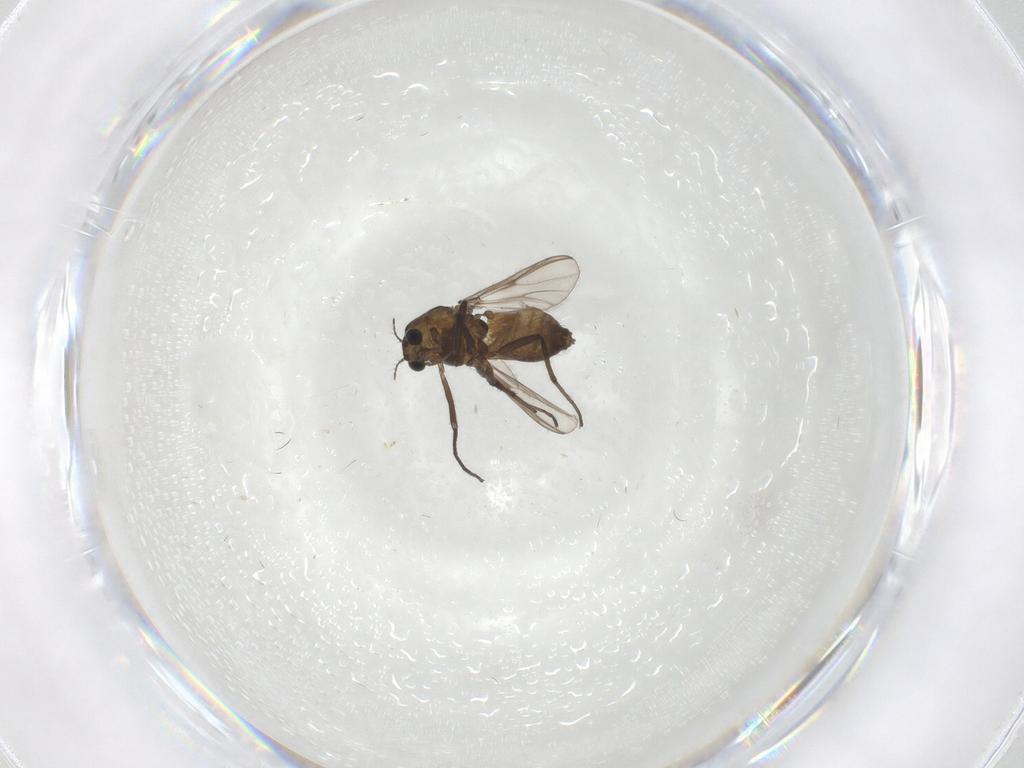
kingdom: Animalia
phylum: Arthropoda
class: Insecta
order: Diptera
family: Chironomidae
